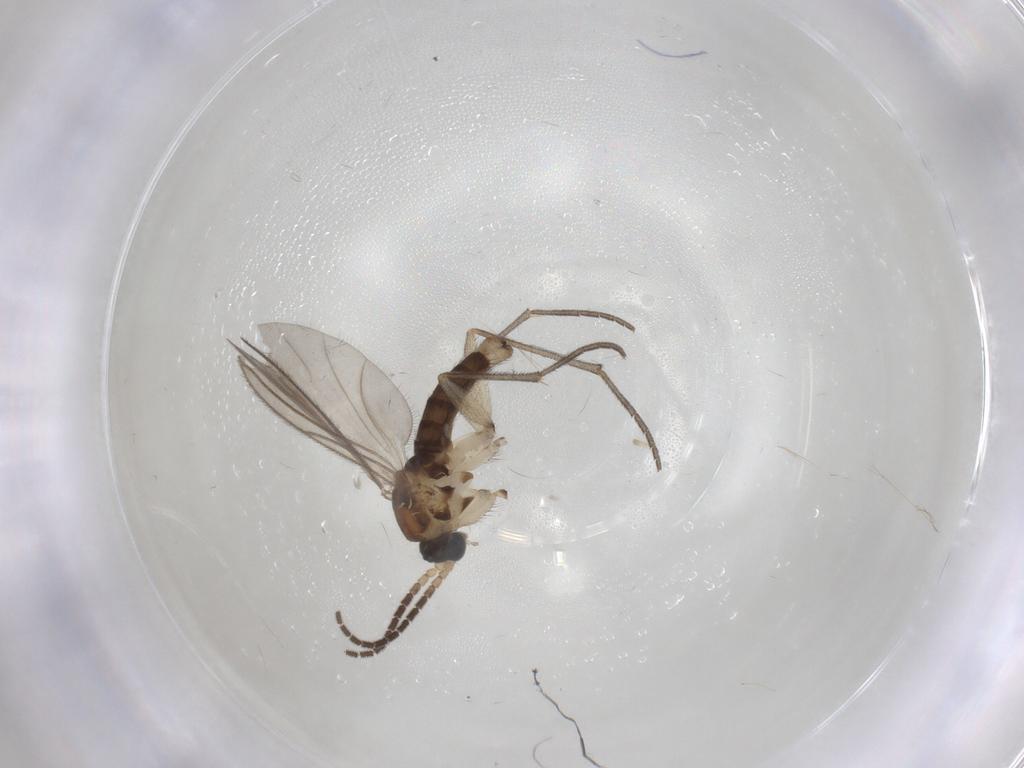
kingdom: Animalia
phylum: Arthropoda
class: Insecta
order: Diptera
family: Sciaridae
